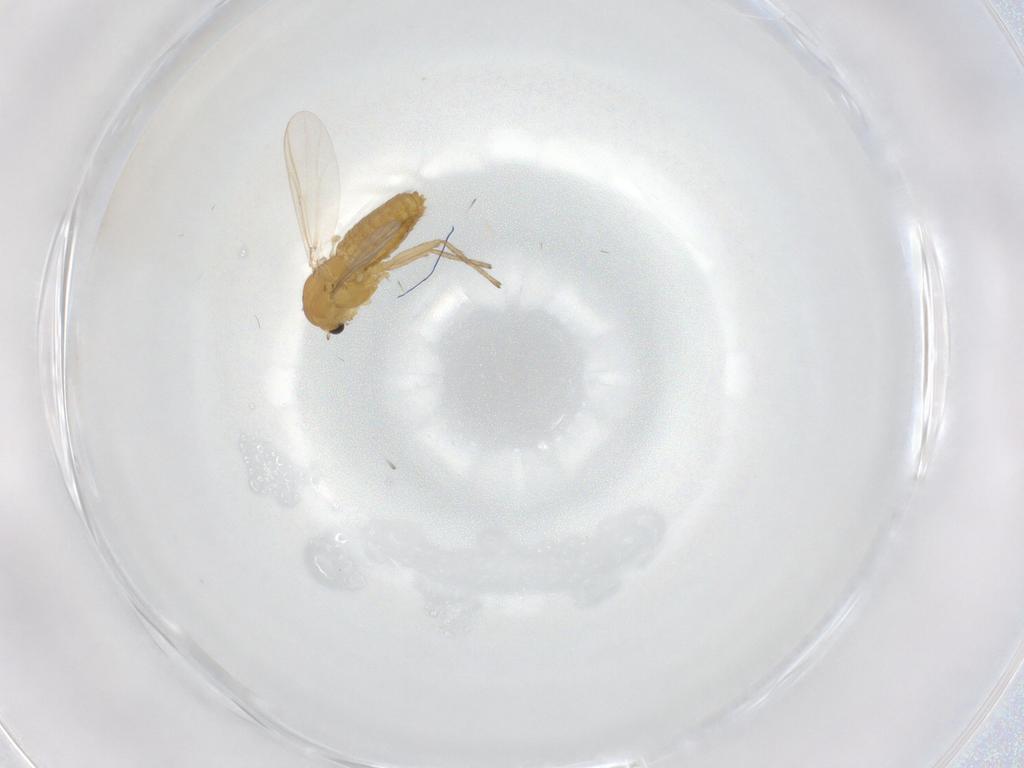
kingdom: Animalia
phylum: Arthropoda
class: Insecta
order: Diptera
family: Chironomidae
